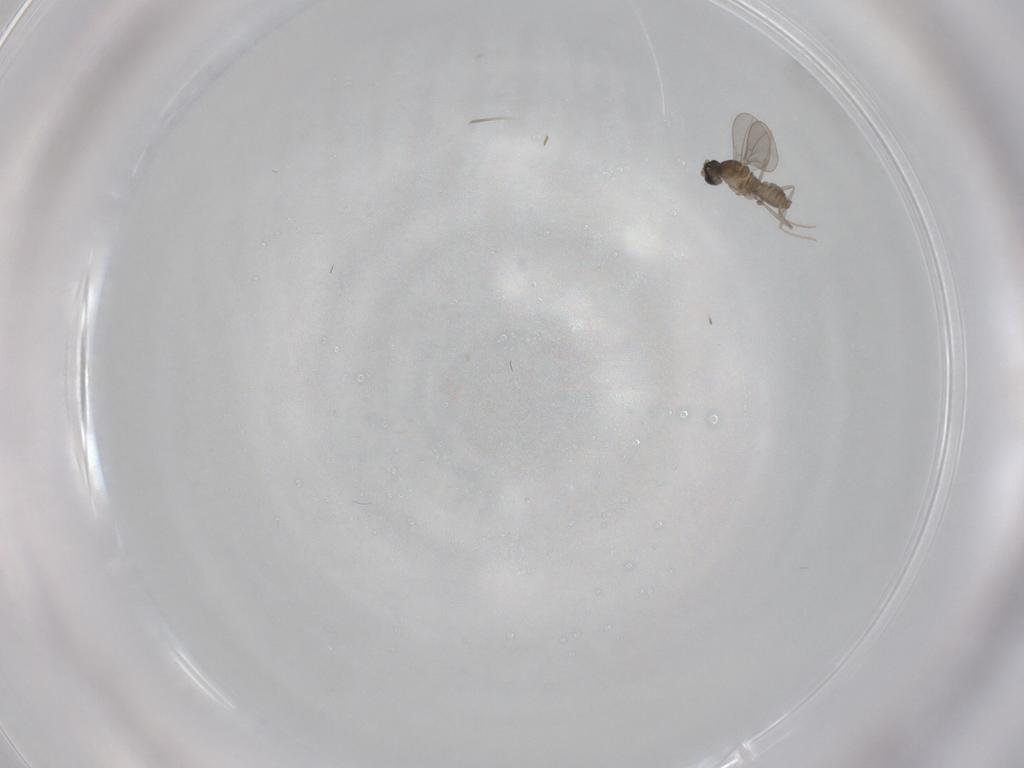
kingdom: Animalia
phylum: Arthropoda
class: Insecta
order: Diptera
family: Cecidomyiidae
